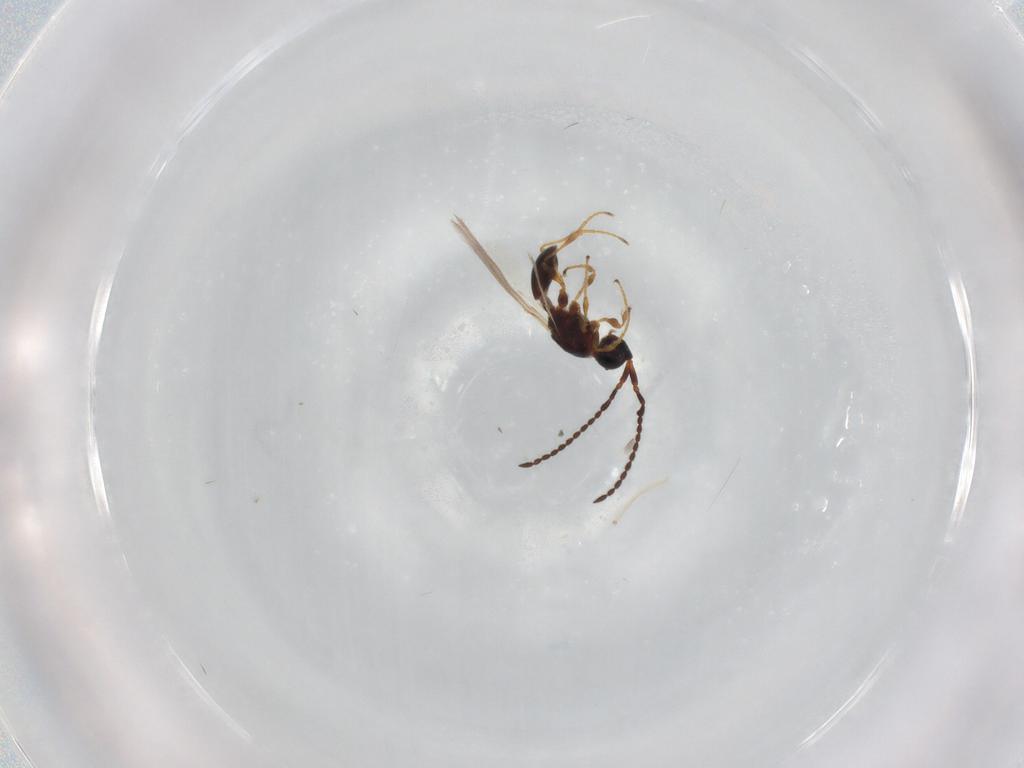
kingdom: Animalia
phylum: Arthropoda
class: Insecta
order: Hymenoptera
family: Diapriidae
